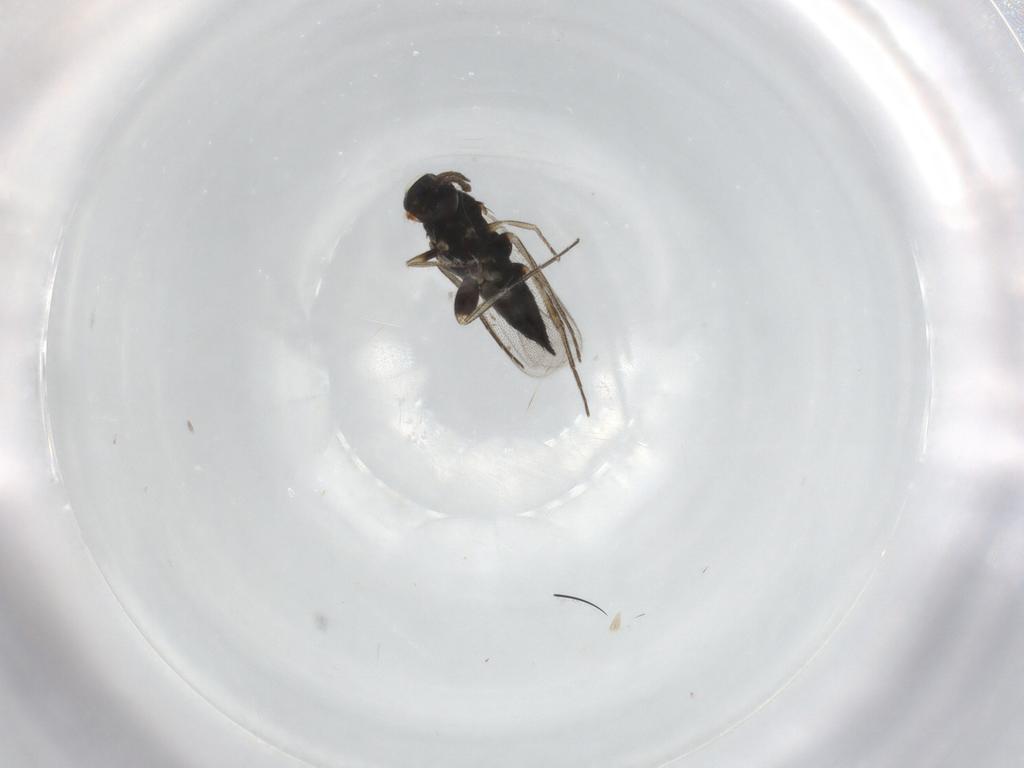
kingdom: Animalia
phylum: Arthropoda
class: Insecta
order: Hymenoptera
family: Eulophidae
